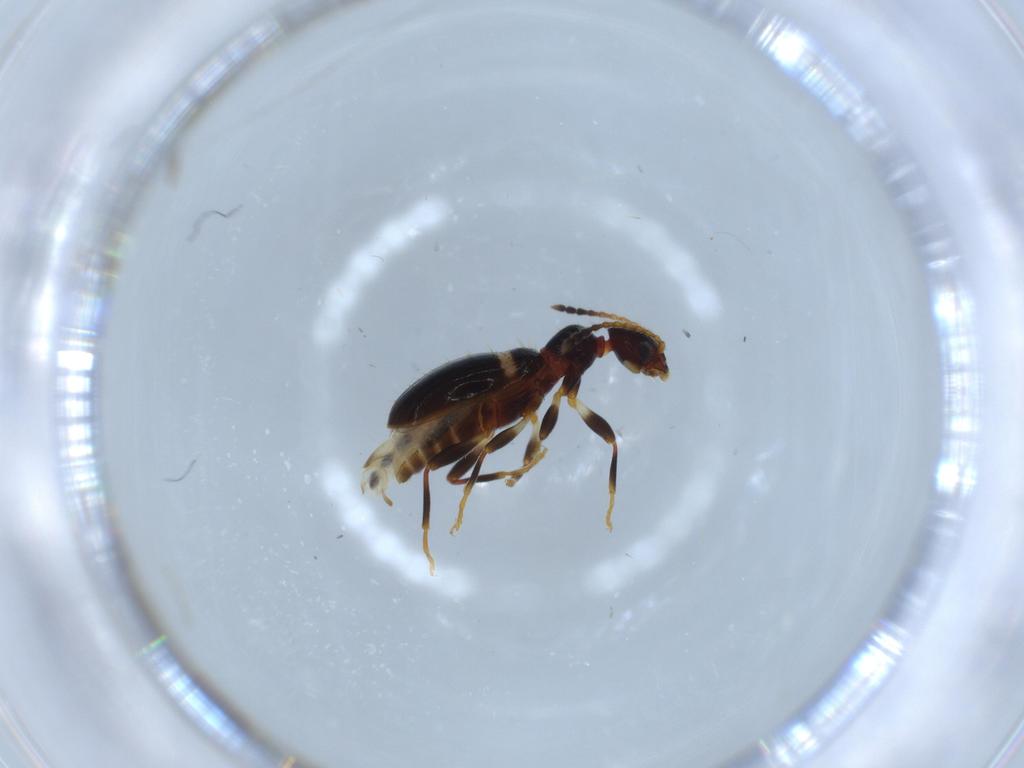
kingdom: Animalia
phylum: Arthropoda
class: Insecta
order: Coleoptera
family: Anthicidae
